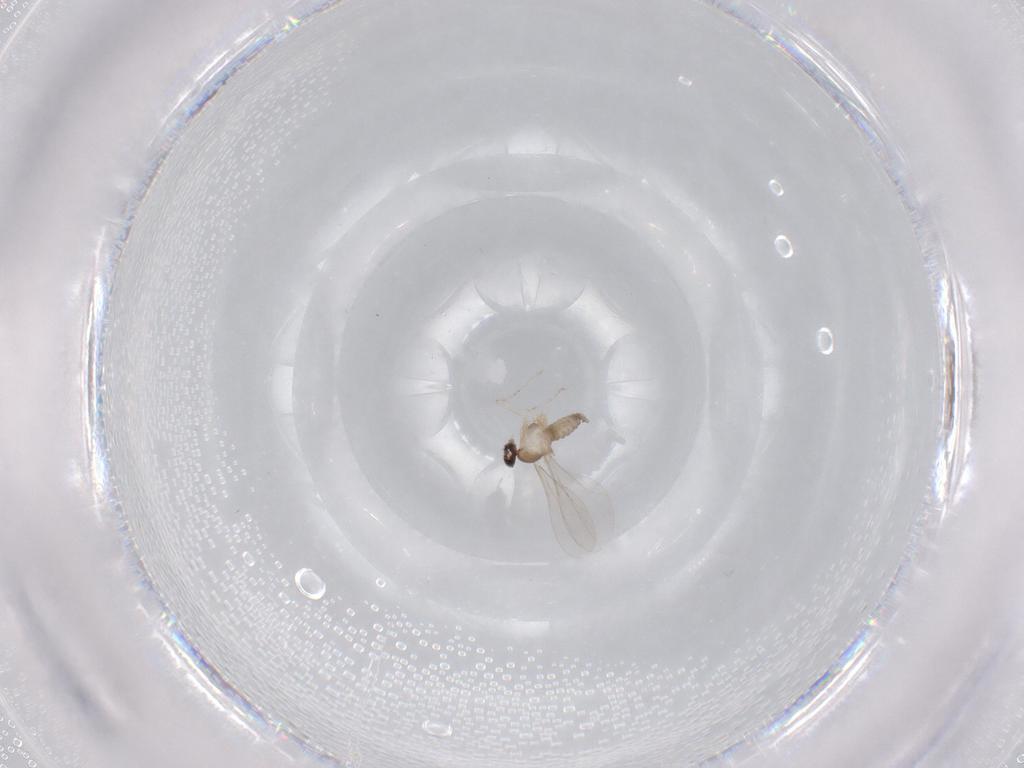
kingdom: Animalia
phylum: Arthropoda
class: Insecta
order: Diptera
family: Cecidomyiidae
